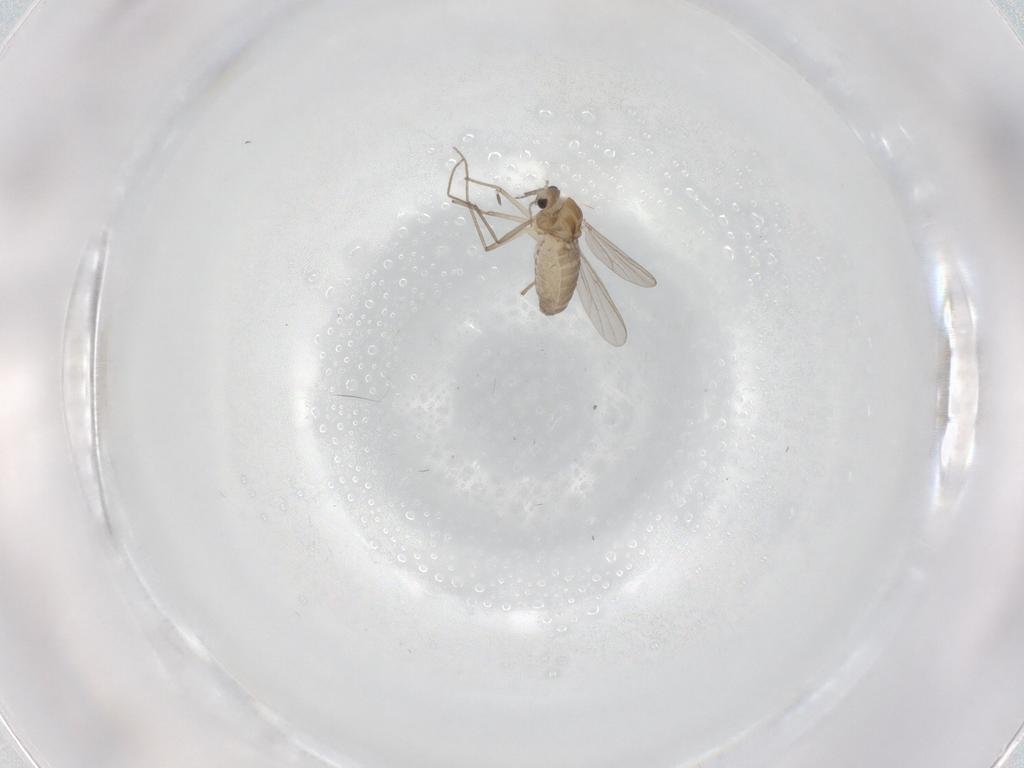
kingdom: Animalia
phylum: Arthropoda
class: Insecta
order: Diptera
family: Chironomidae
